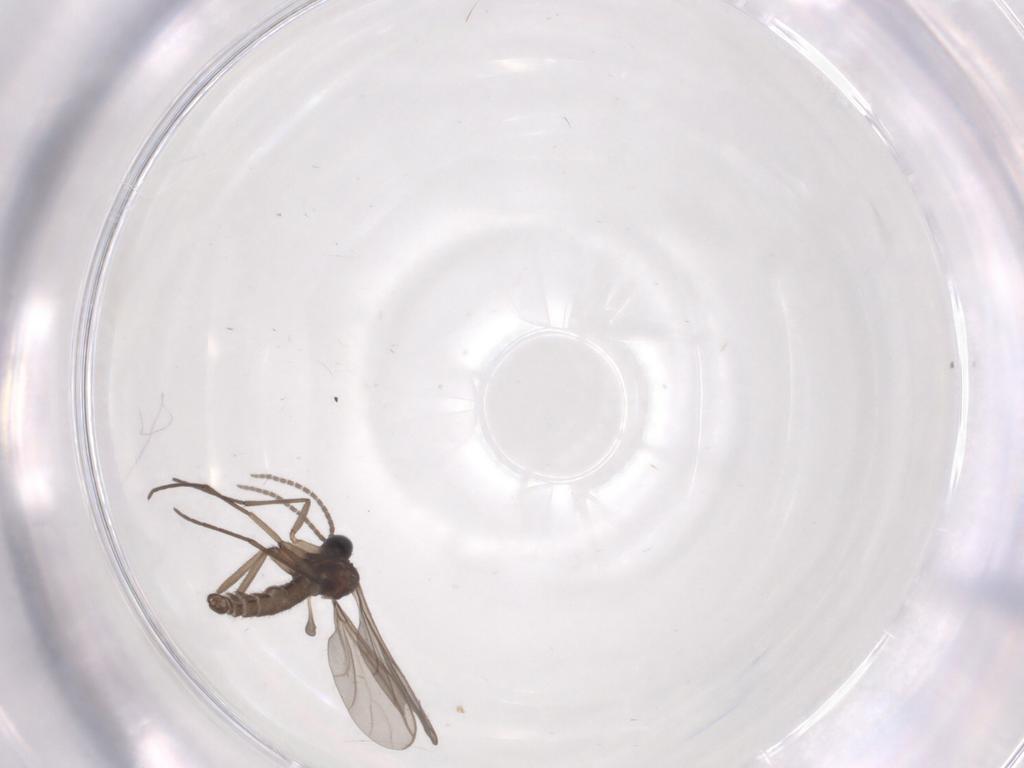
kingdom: Animalia
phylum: Arthropoda
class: Insecta
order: Diptera
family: Sciaridae
